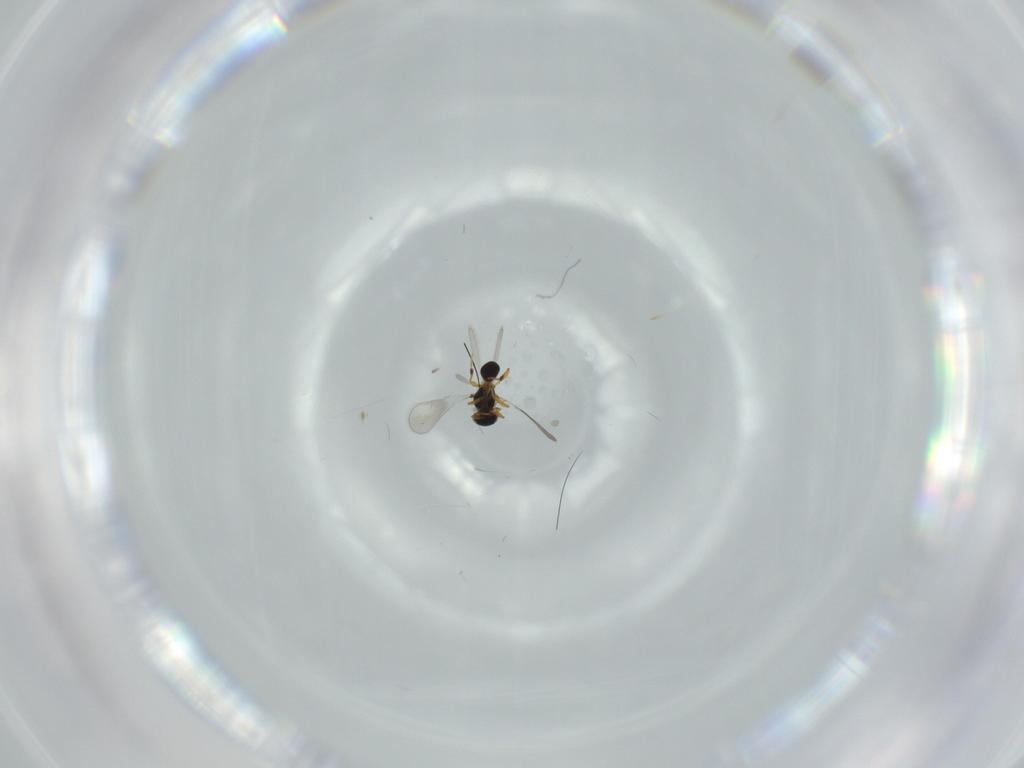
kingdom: Animalia
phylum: Arthropoda
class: Insecta
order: Hymenoptera
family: Platygastridae
